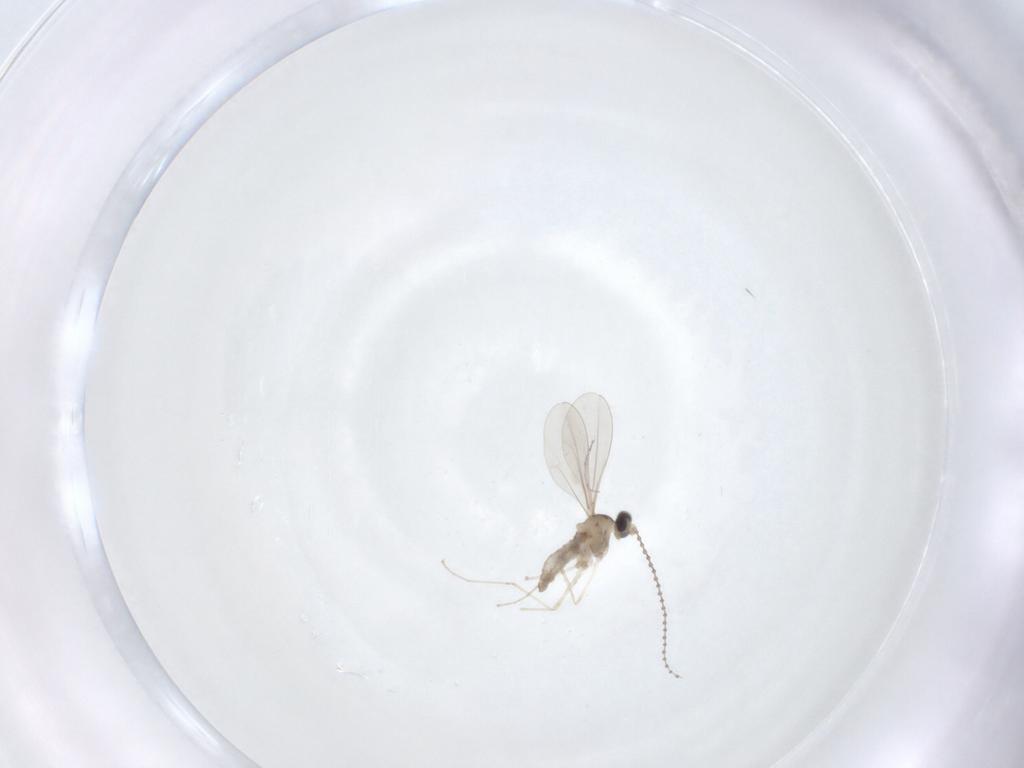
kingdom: Animalia
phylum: Arthropoda
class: Insecta
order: Diptera
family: Cecidomyiidae
